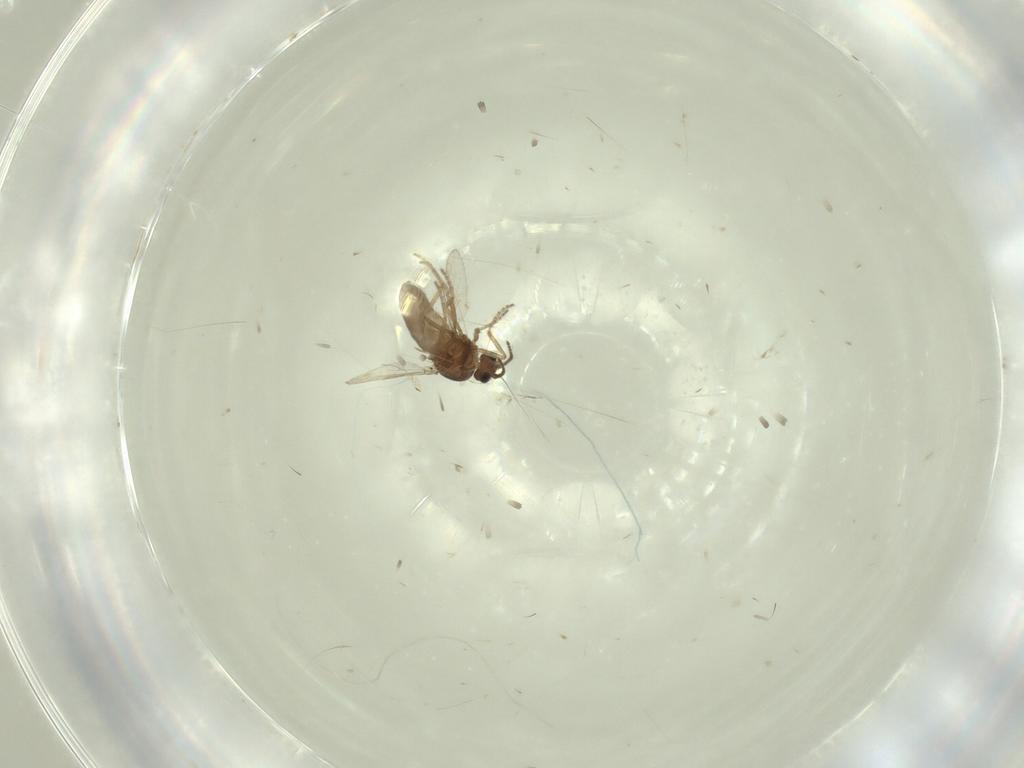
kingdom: Animalia
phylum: Arthropoda
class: Insecta
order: Diptera
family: Ceratopogonidae
